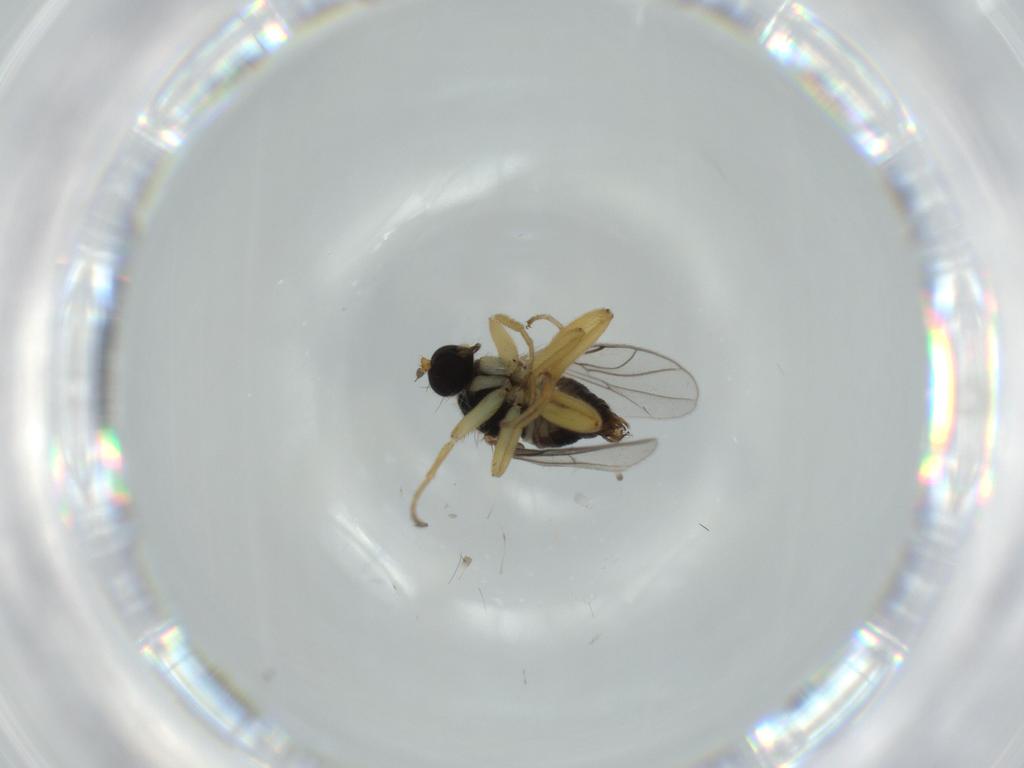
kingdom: Animalia
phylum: Arthropoda
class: Insecta
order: Diptera
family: Hybotidae
